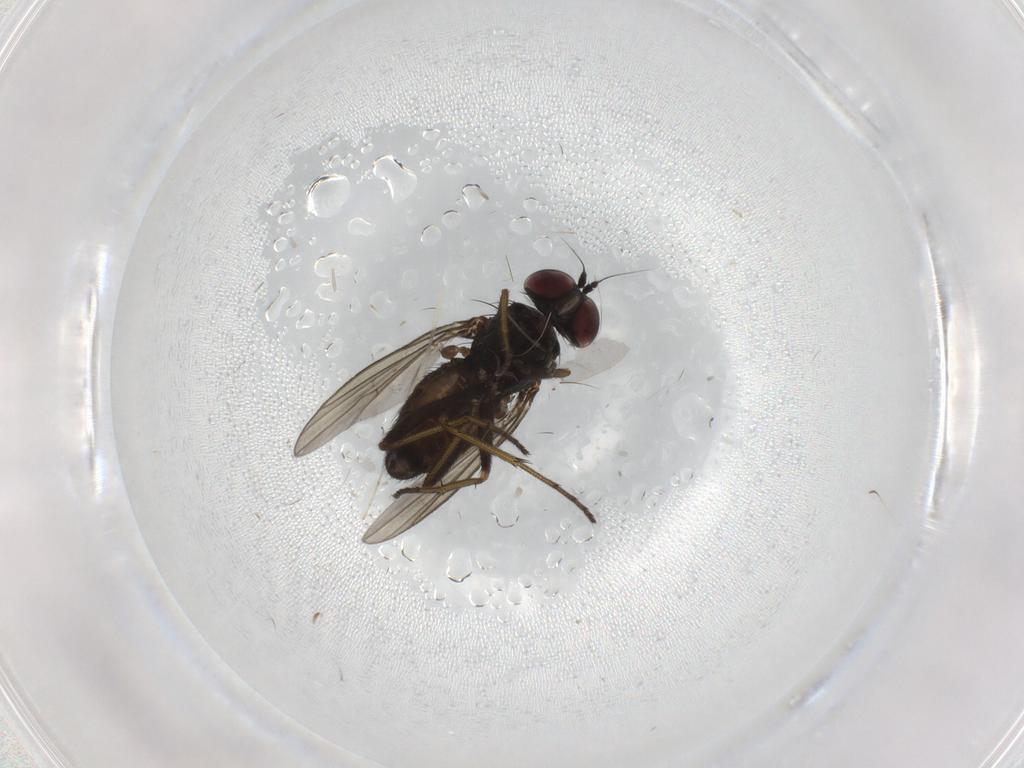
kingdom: Animalia
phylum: Arthropoda
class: Insecta
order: Diptera
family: Dolichopodidae
